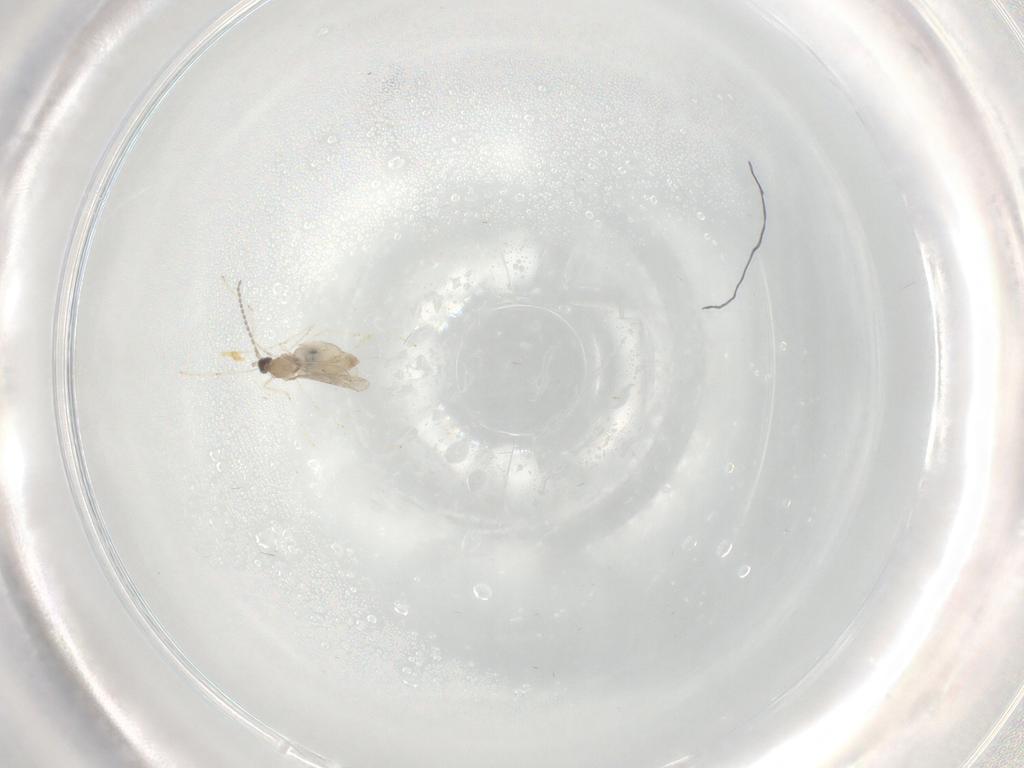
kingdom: Animalia
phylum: Arthropoda
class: Insecta
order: Diptera
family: Cecidomyiidae
